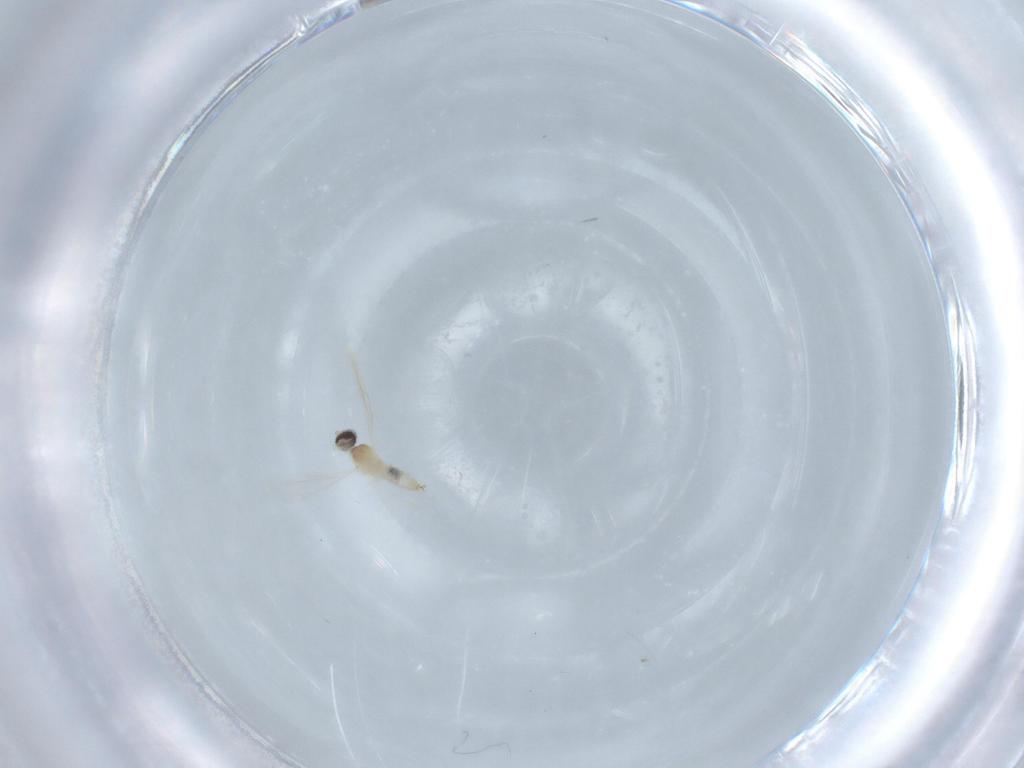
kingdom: Animalia
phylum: Arthropoda
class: Insecta
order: Diptera
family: Cecidomyiidae
